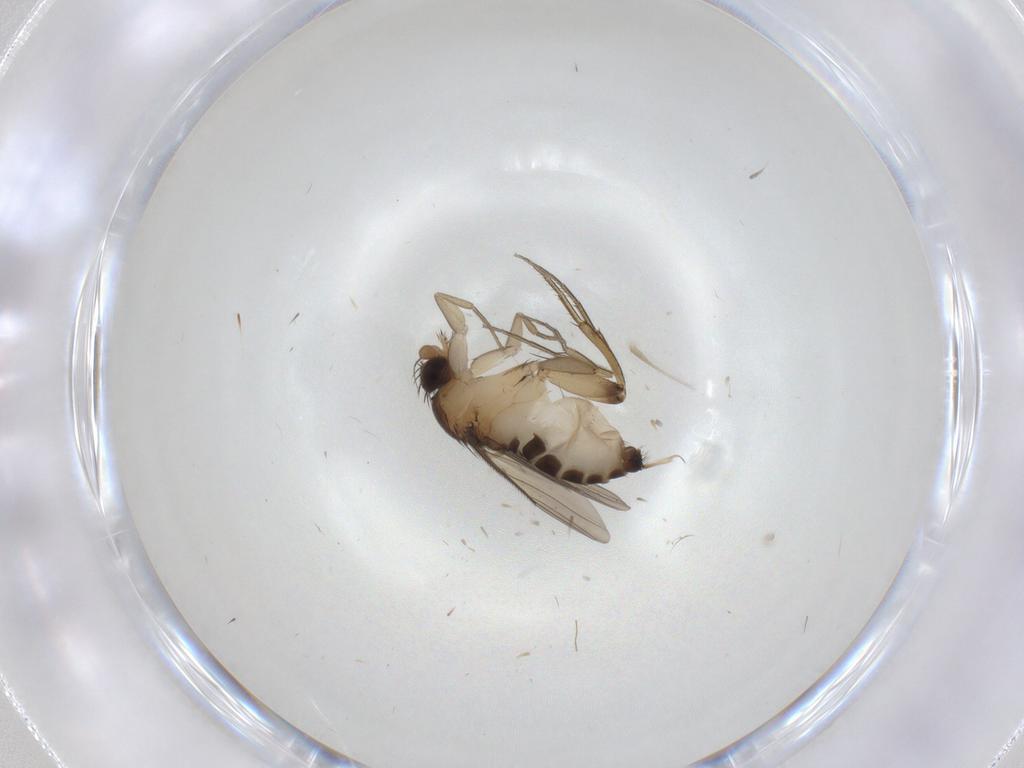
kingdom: Animalia
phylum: Arthropoda
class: Insecta
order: Diptera
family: Phoridae
